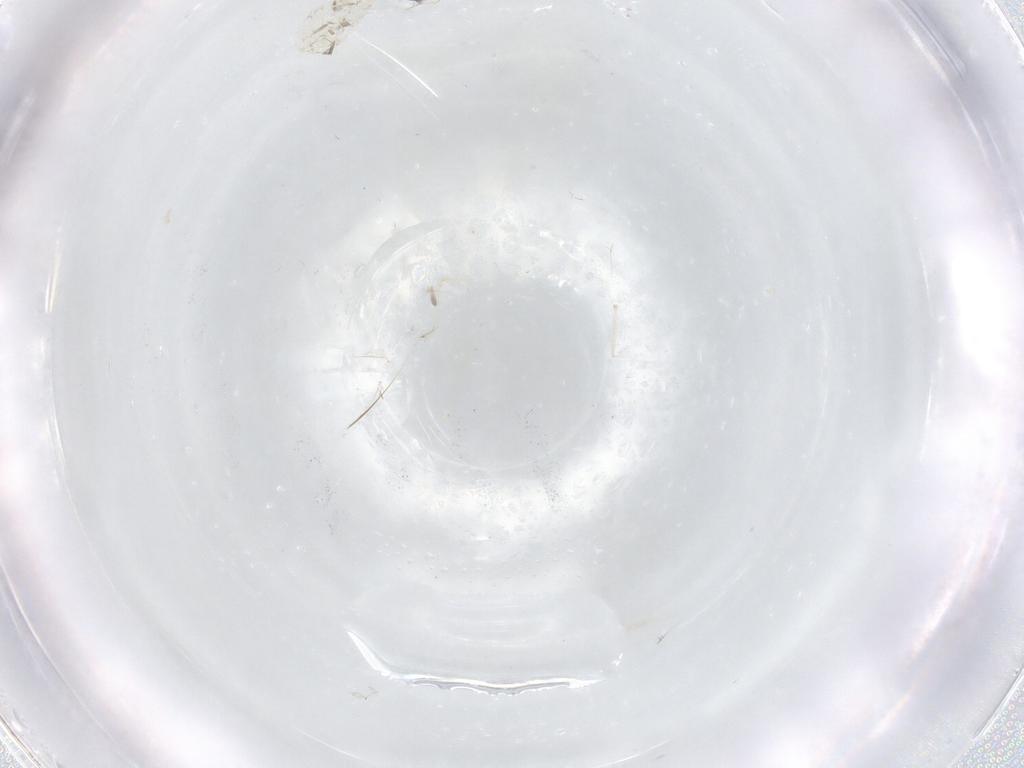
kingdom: Animalia
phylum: Arthropoda
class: Insecta
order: Diptera
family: Cecidomyiidae
